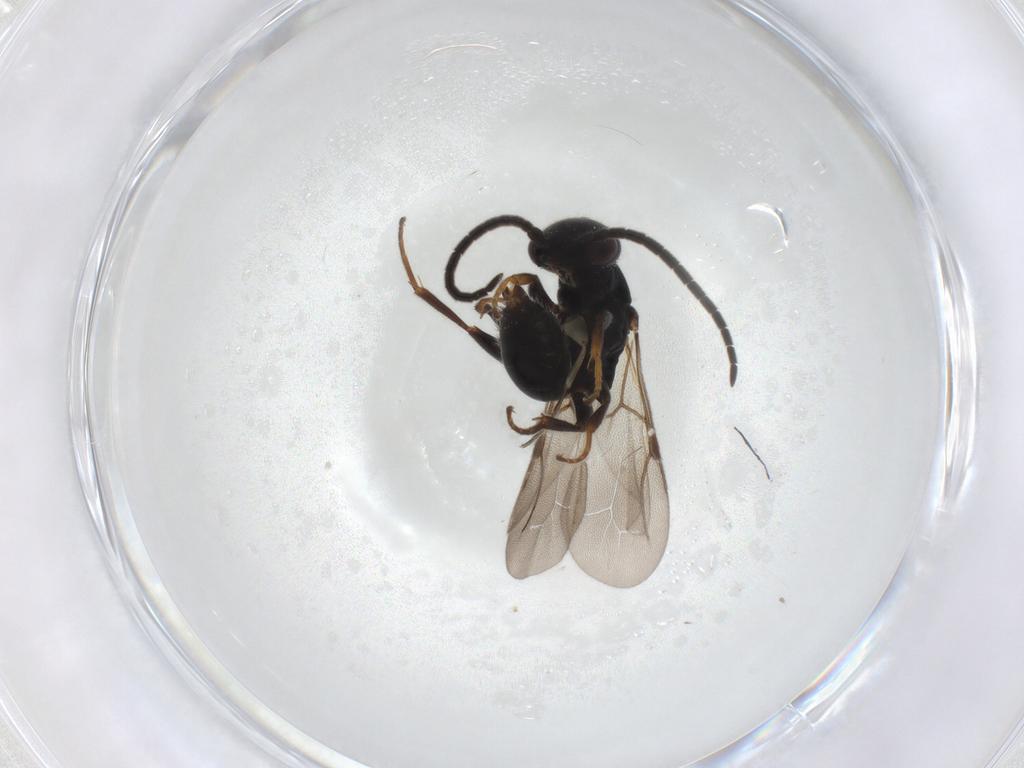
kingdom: Animalia
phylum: Arthropoda
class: Insecta
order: Hymenoptera
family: Bethylidae
